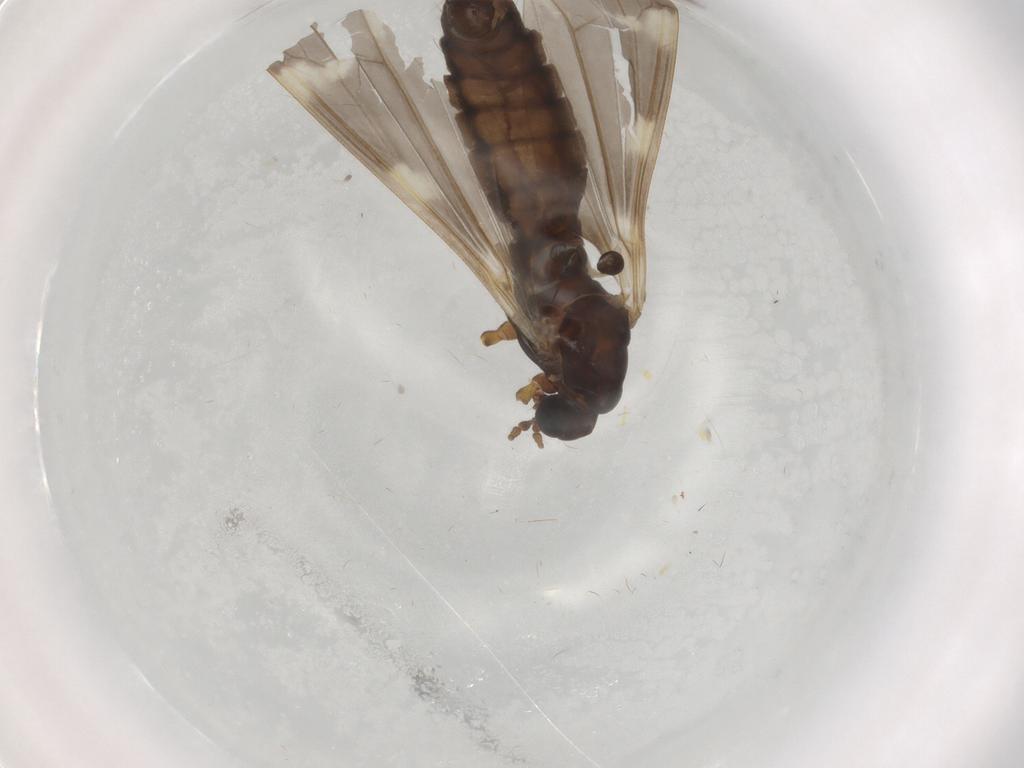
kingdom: Animalia
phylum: Arthropoda
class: Insecta
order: Diptera
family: Limoniidae
